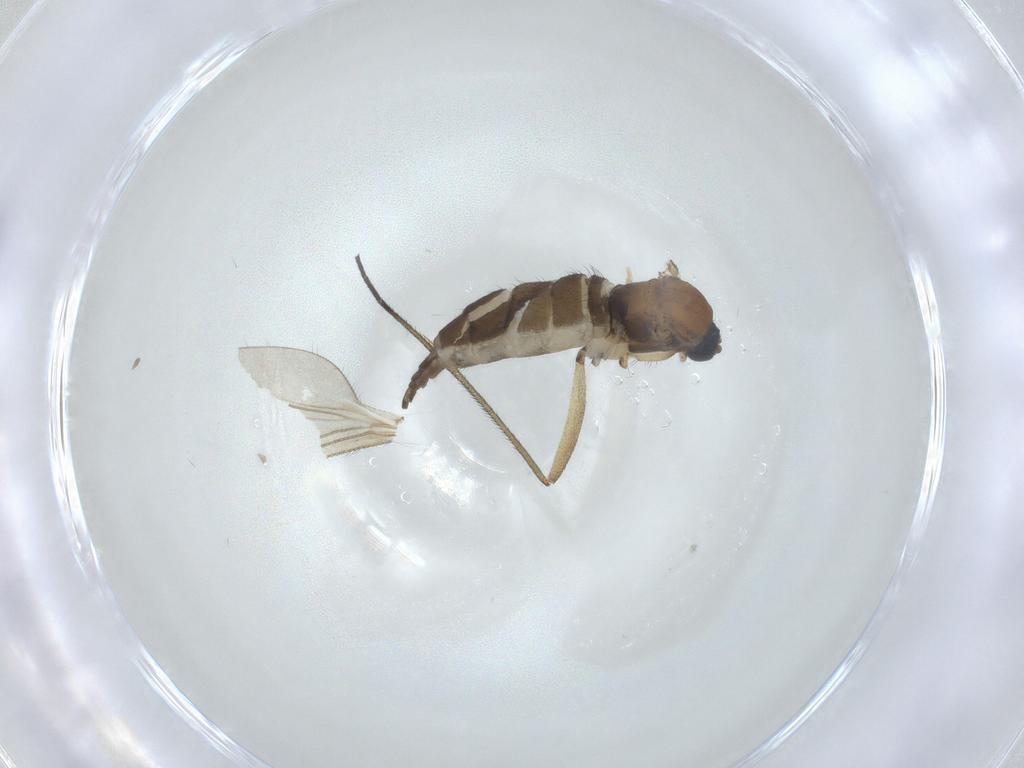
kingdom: Animalia
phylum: Arthropoda
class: Insecta
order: Diptera
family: Sciaridae
